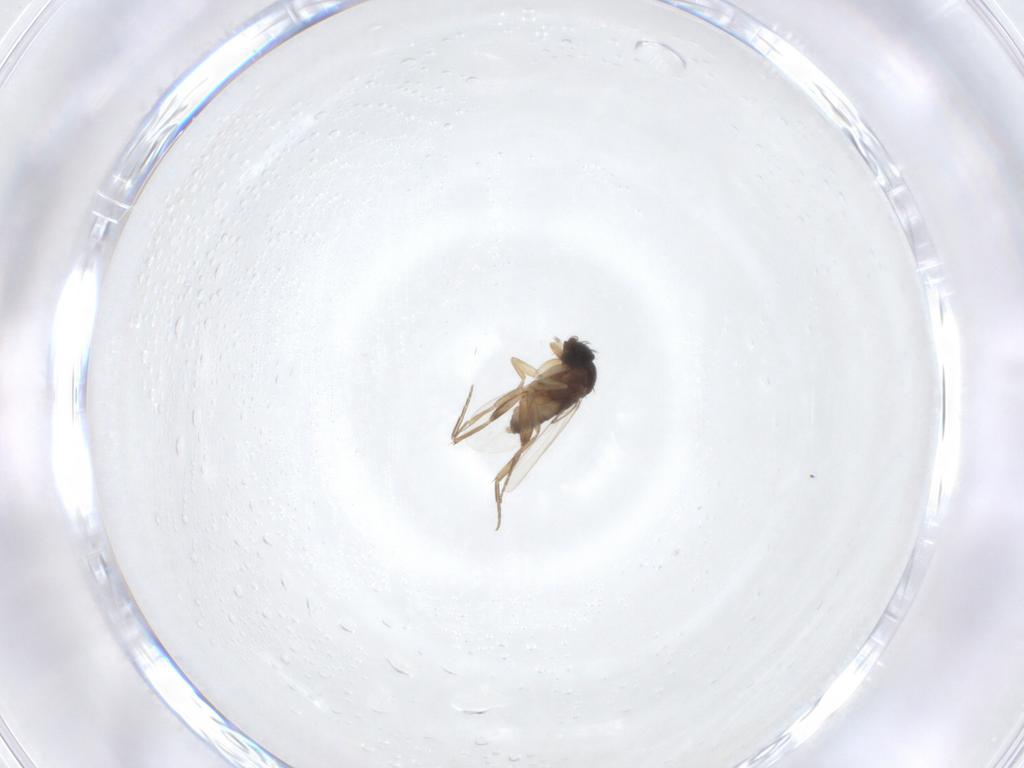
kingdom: Animalia
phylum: Arthropoda
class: Insecta
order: Diptera
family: Phoridae
